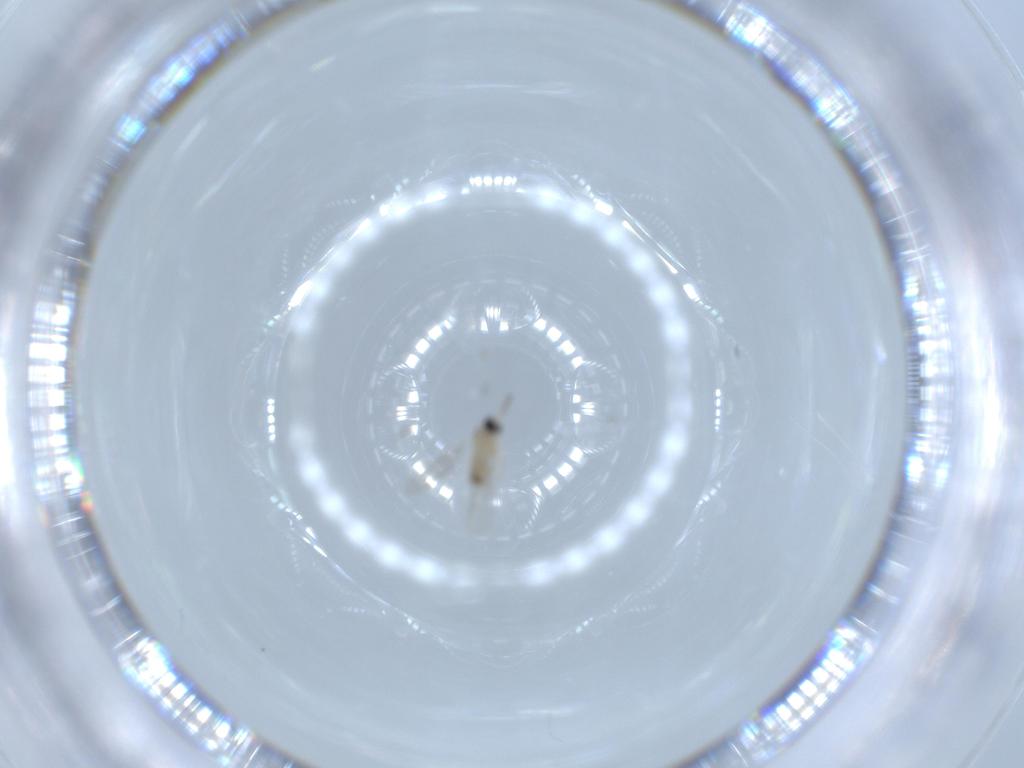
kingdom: Animalia
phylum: Arthropoda
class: Insecta
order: Diptera
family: Cecidomyiidae
